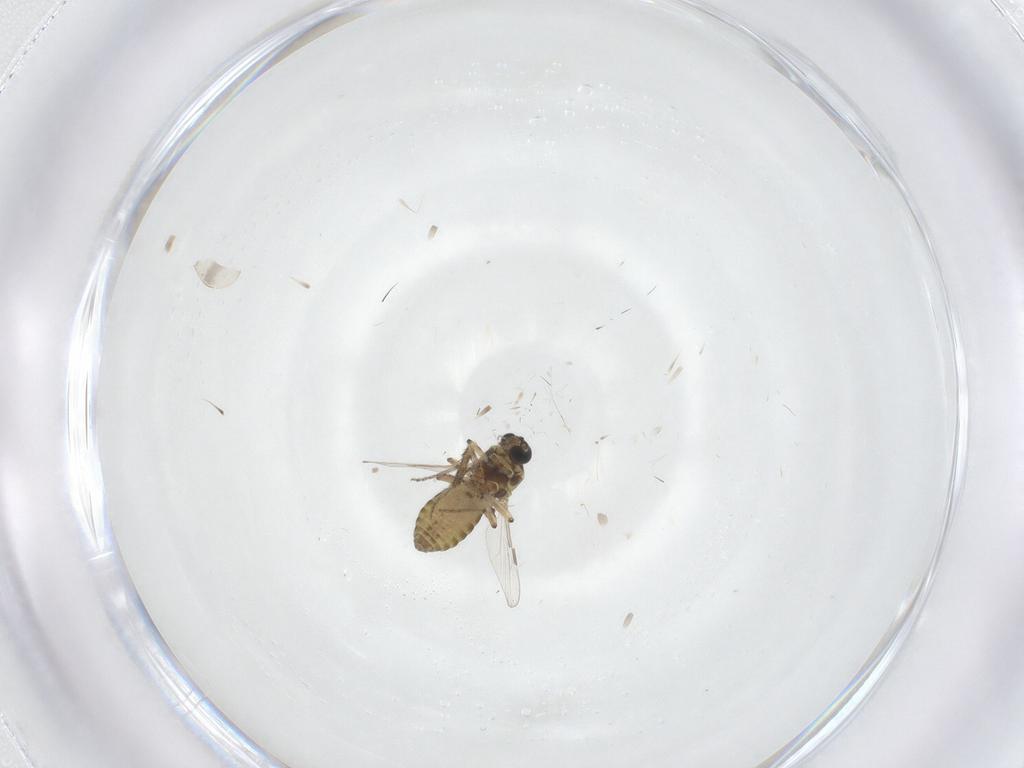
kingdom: Animalia
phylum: Arthropoda
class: Insecta
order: Diptera
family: Ceratopogonidae
